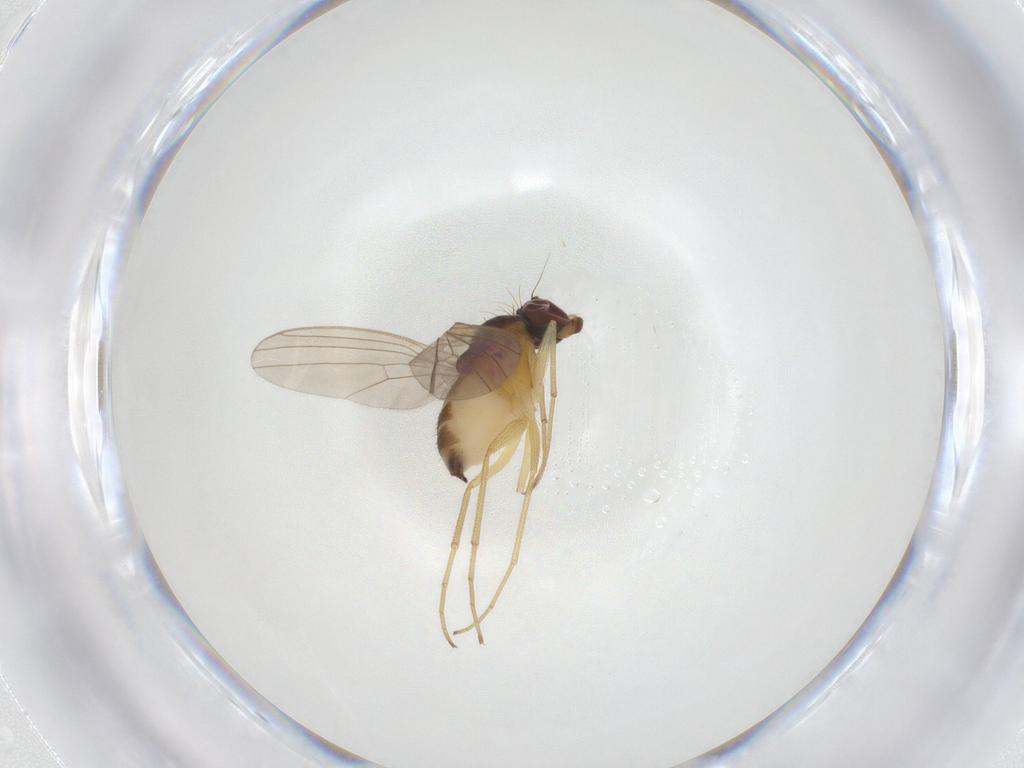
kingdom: Animalia
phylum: Arthropoda
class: Insecta
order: Diptera
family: Dolichopodidae
